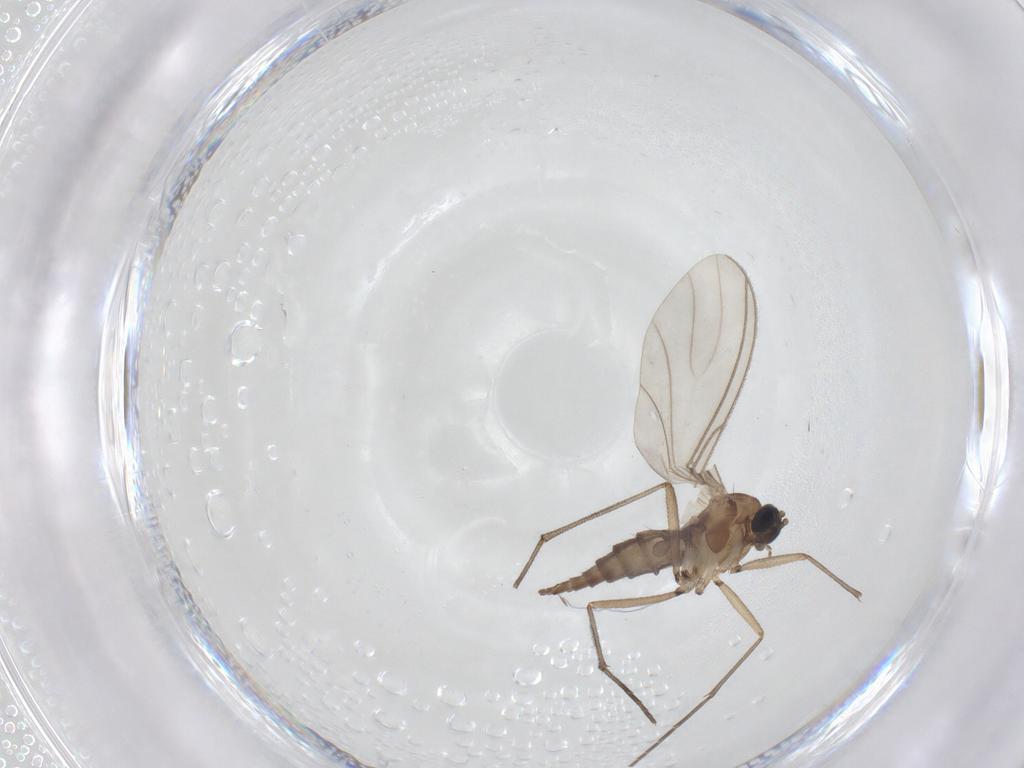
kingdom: Animalia
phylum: Arthropoda
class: Insecta
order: Diptera
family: Sciaridae
